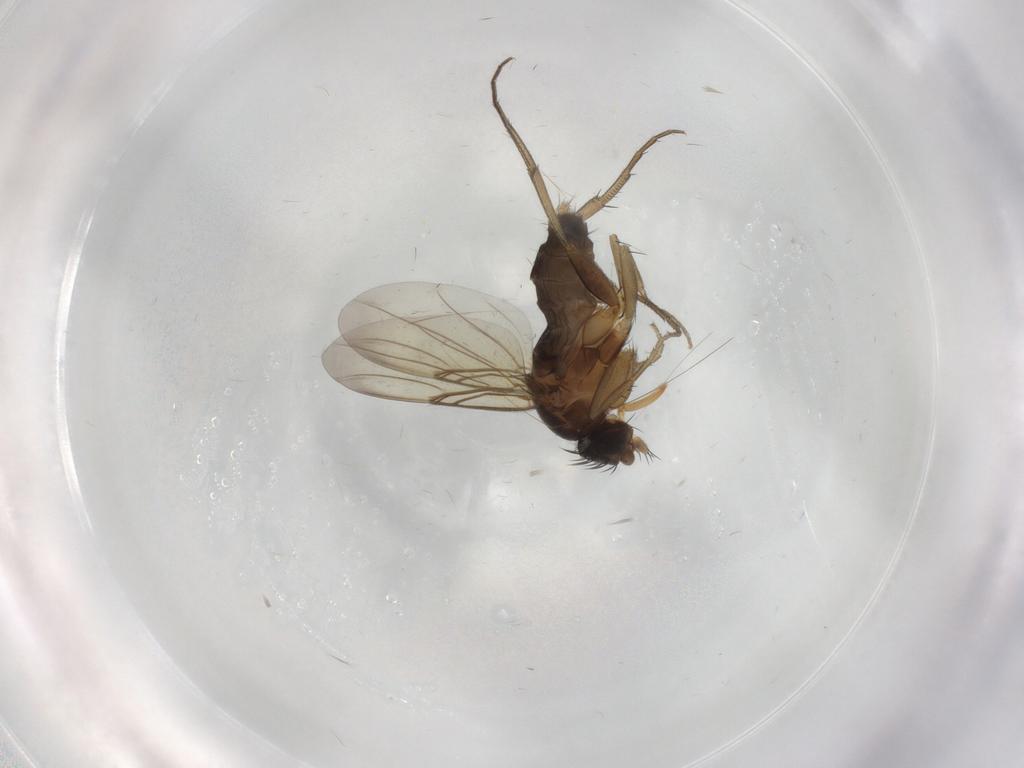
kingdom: Animalia
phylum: Arthropoda
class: Insecta
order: Diptera
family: Phoridae
